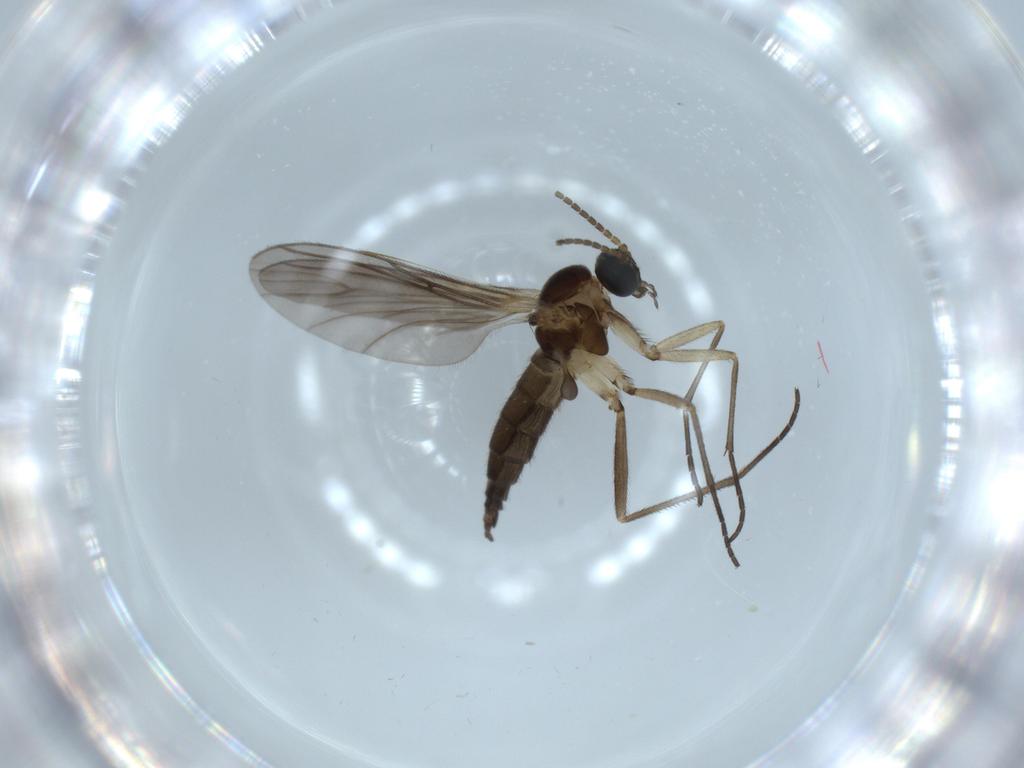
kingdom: Animalia
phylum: Arthropoda
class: Insecta
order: Diptera
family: Sciaridae
